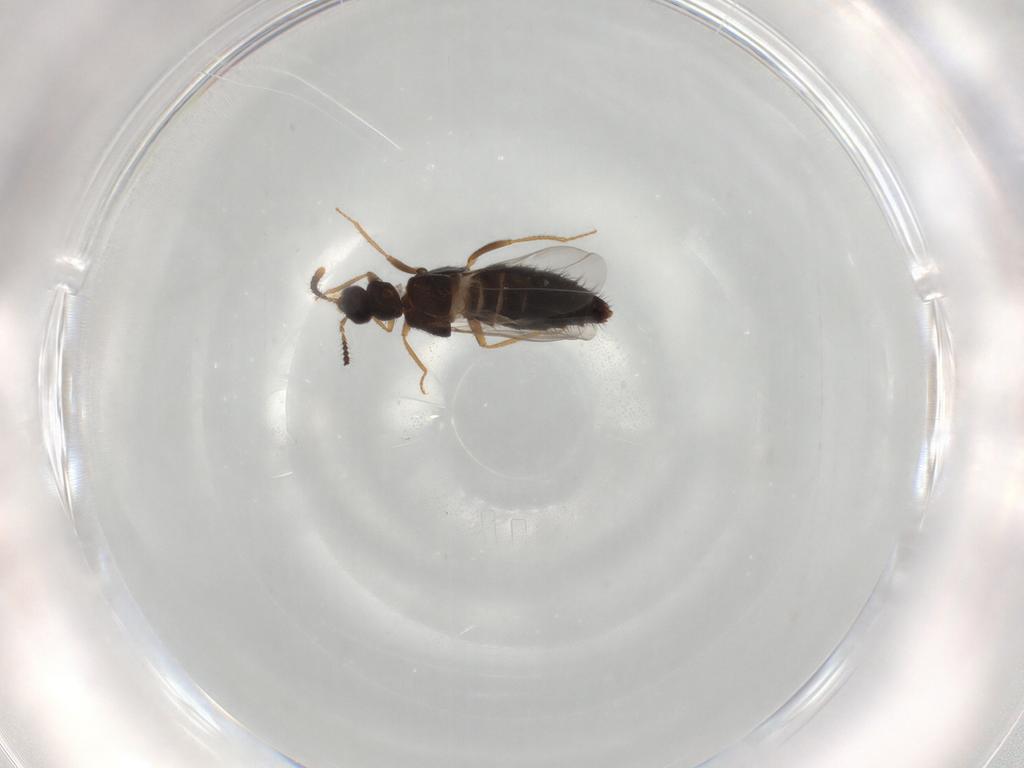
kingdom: Animalia
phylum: Arthropoda
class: Insecta
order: Coleoptera
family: Staphylinidae
